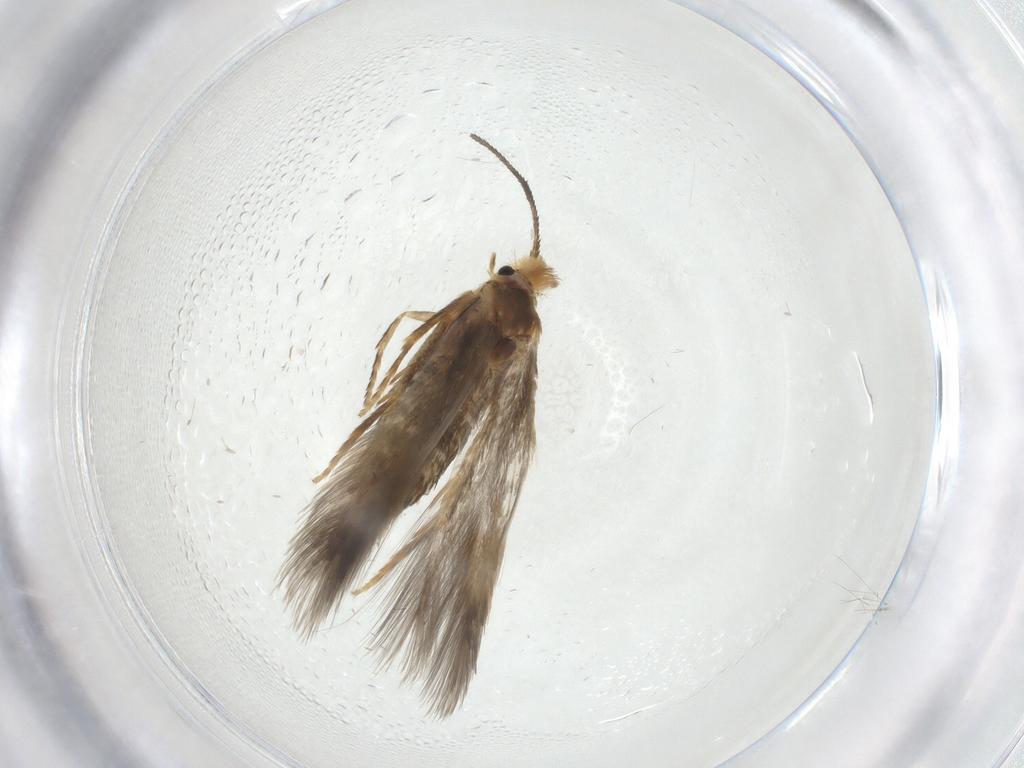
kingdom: Animalia
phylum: Arthropoda
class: Insecta
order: Lepidoptera
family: Nepticulidae
